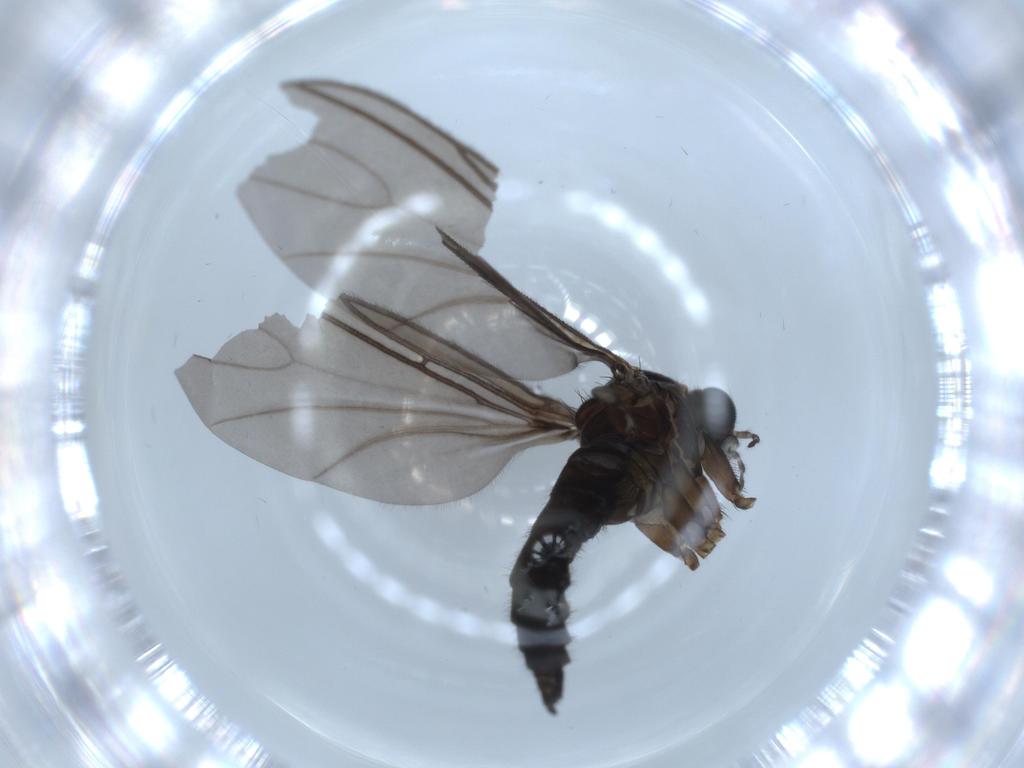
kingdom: Animalia
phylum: Arthropoda
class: Insecta
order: Diptera
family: Sciaridae
